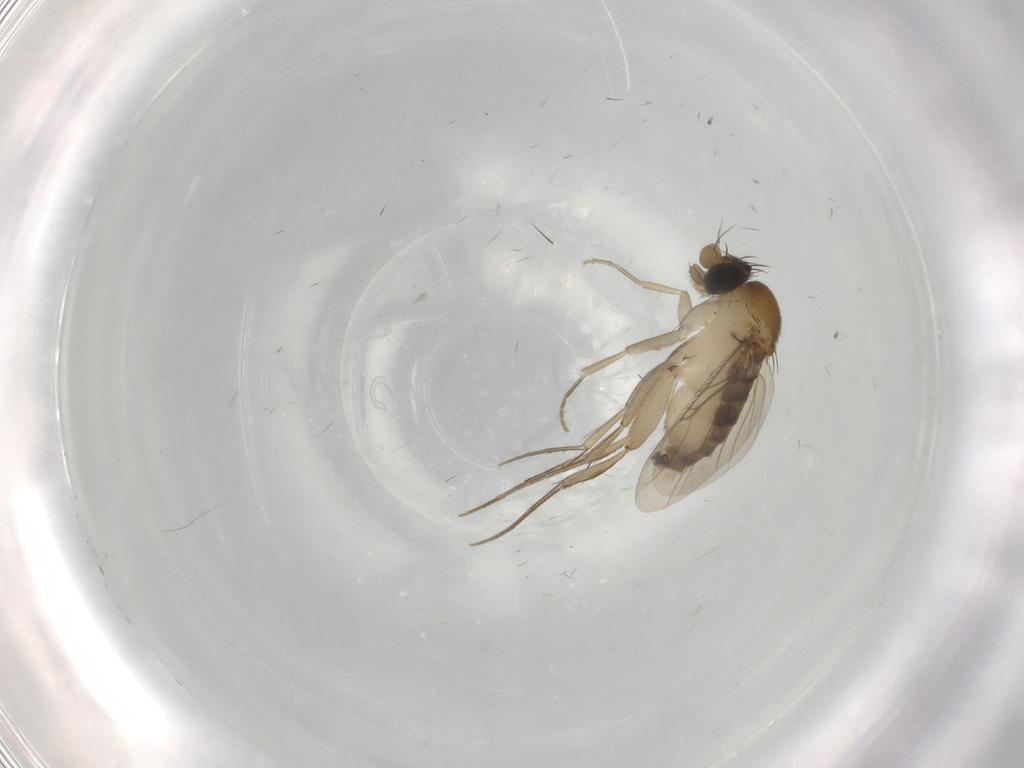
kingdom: Animalia
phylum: Arthropoda
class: Insecta
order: Diptera
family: Phoridae
